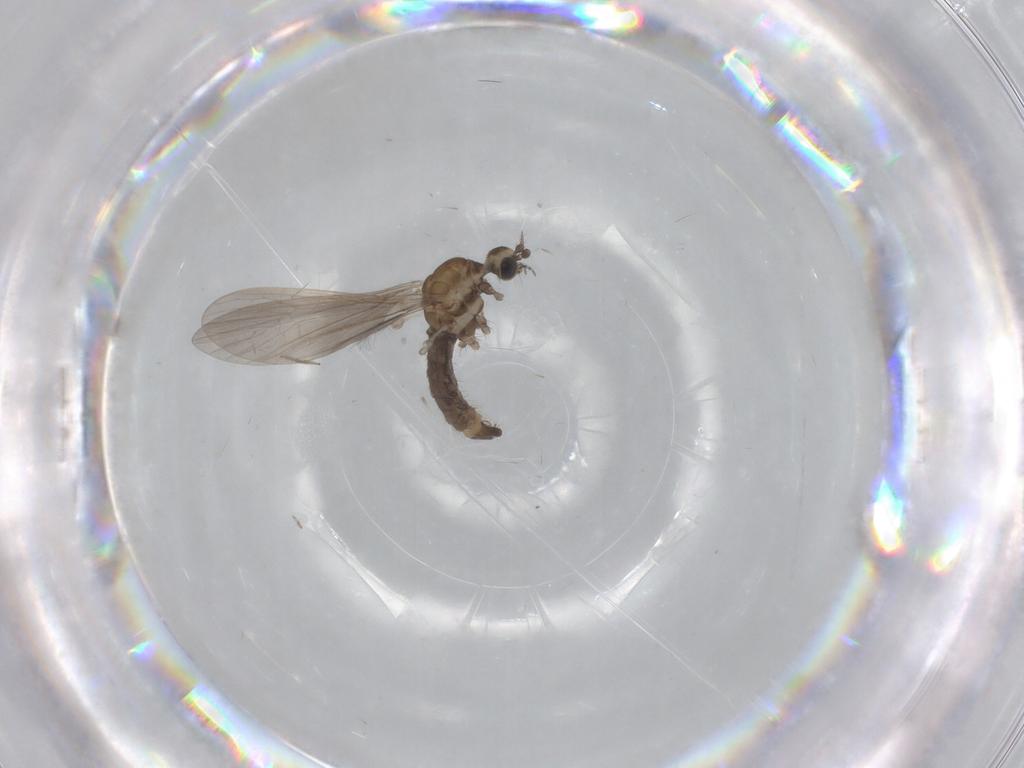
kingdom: Animalia
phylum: Arthropoda
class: Insecta
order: Diptera
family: Limoniidae
